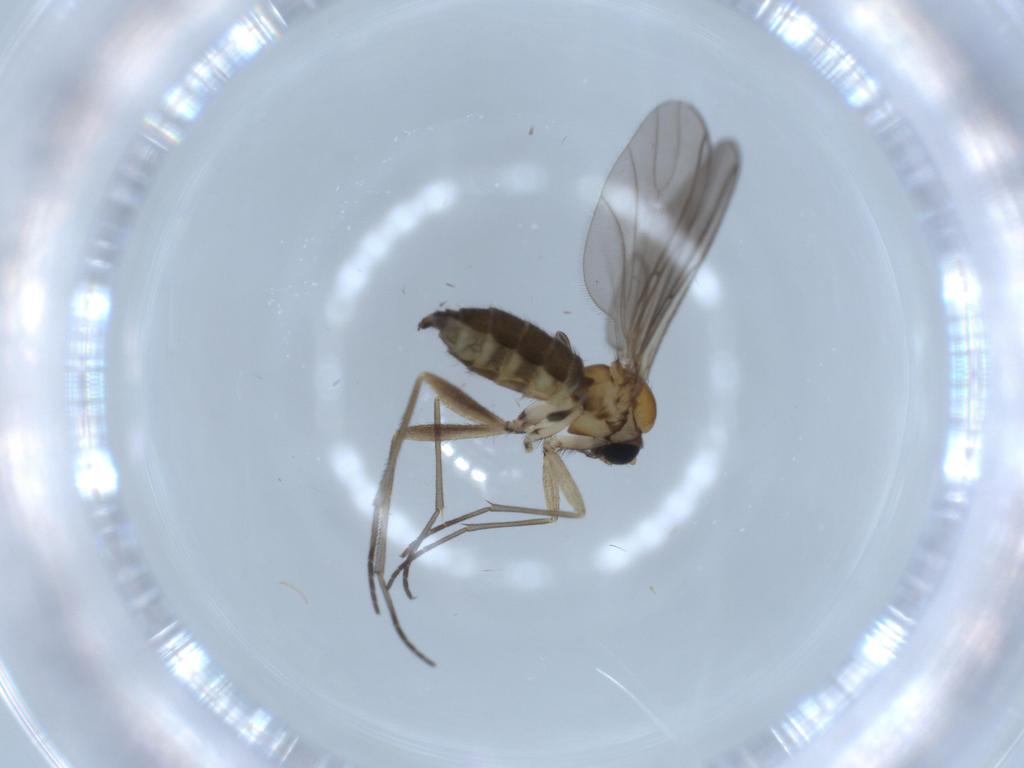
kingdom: Animalia
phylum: Arthropoda
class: Insecta
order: Diptera
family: Sciaridae
